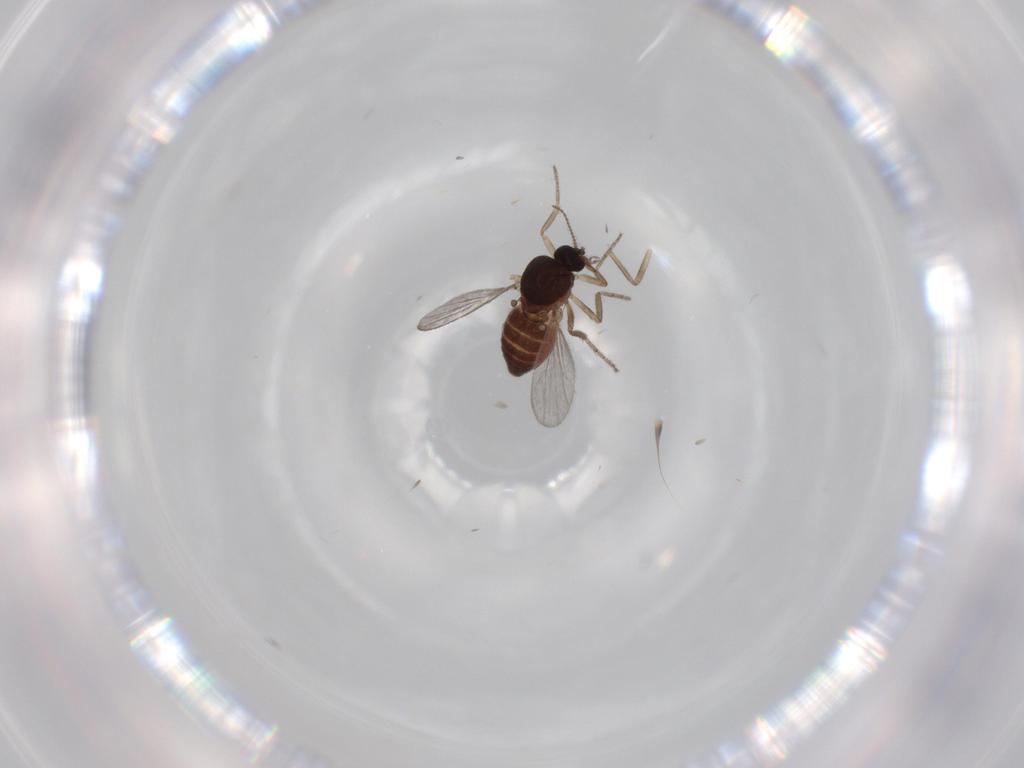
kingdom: Animalia
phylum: Arthropoda
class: Insecta
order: Diptera
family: Ceratopogonidae
